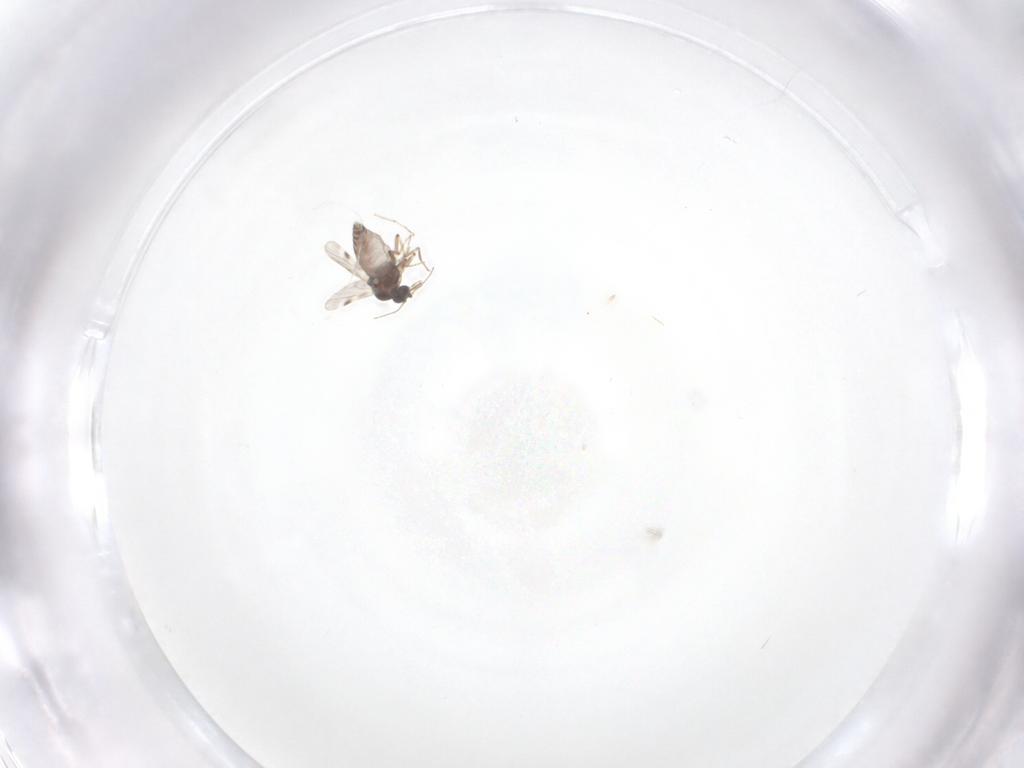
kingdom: Animalia
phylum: Arthropoda
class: Insecta
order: Diptera
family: Mycetophilidae
